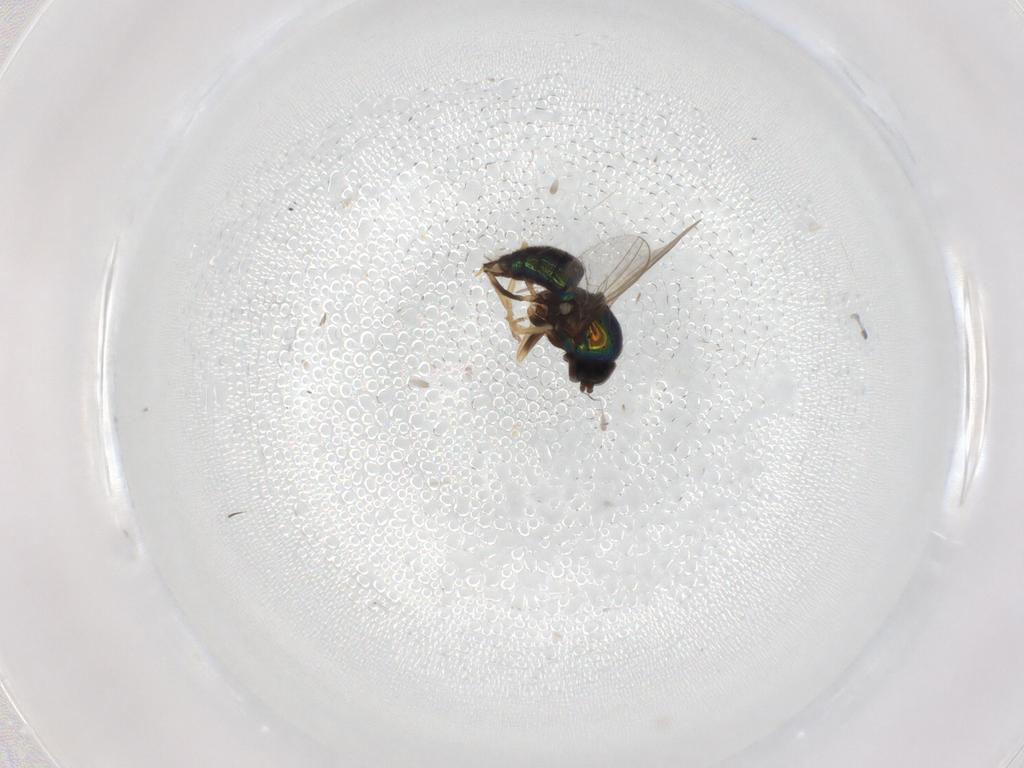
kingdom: Animalia
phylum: Arthropoda
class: Insecta
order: Diptera
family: Dolichopodidae
